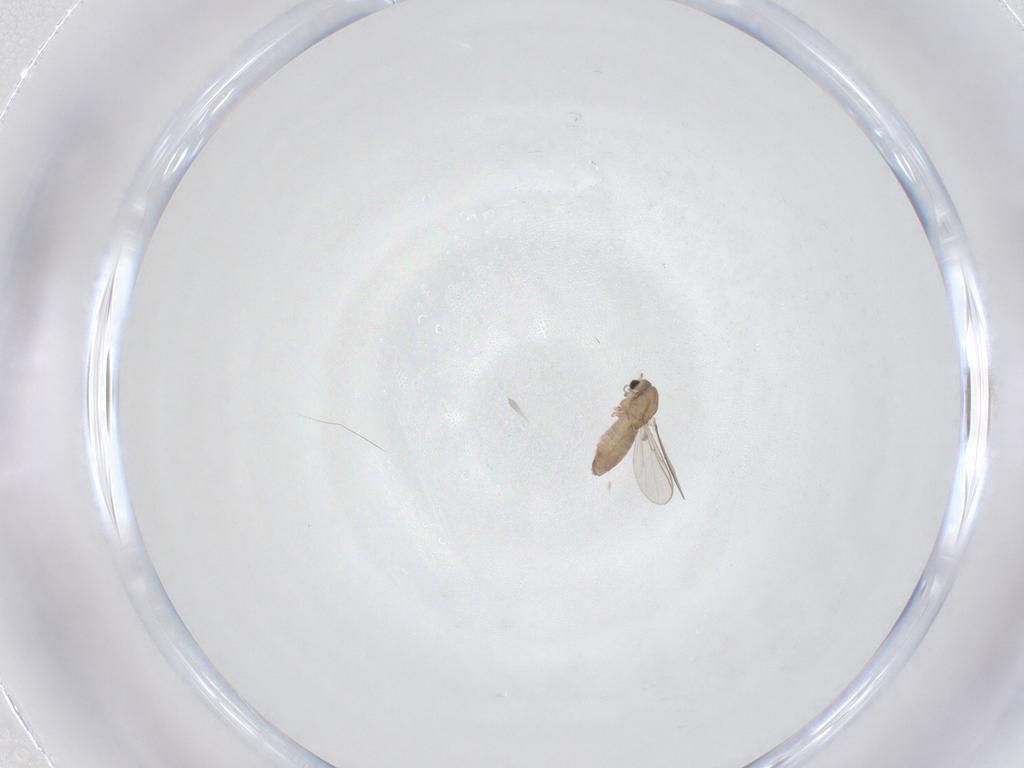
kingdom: Animalia
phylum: Arthropoda
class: Insecta
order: Diptera
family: Chironomidae
